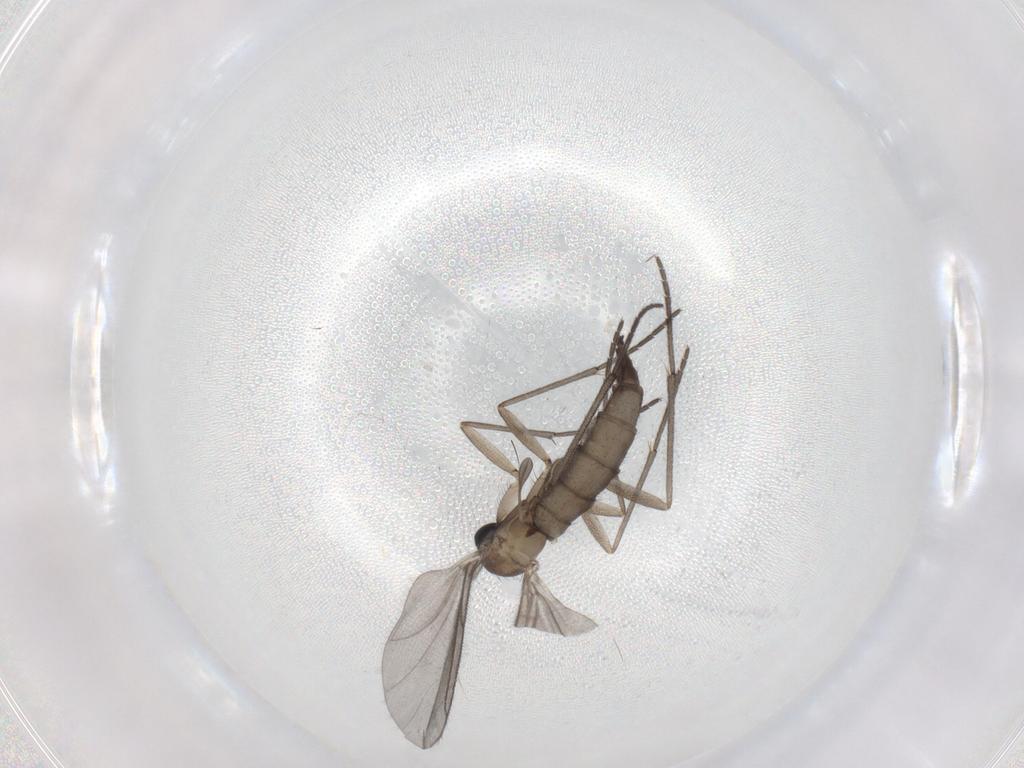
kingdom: Animalia
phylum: Arthropoda
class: Insecta
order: Diptera
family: Sciaridae
